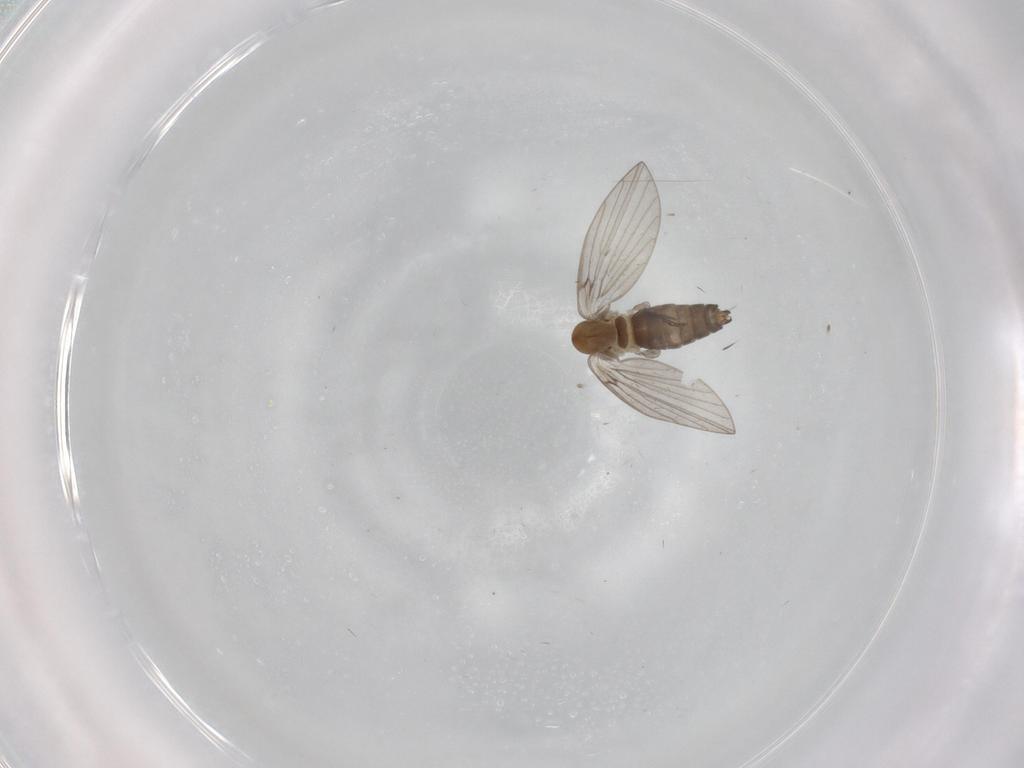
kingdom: Animalia
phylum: Arthropoda
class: Insecta
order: Diptera
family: Psychodidae
